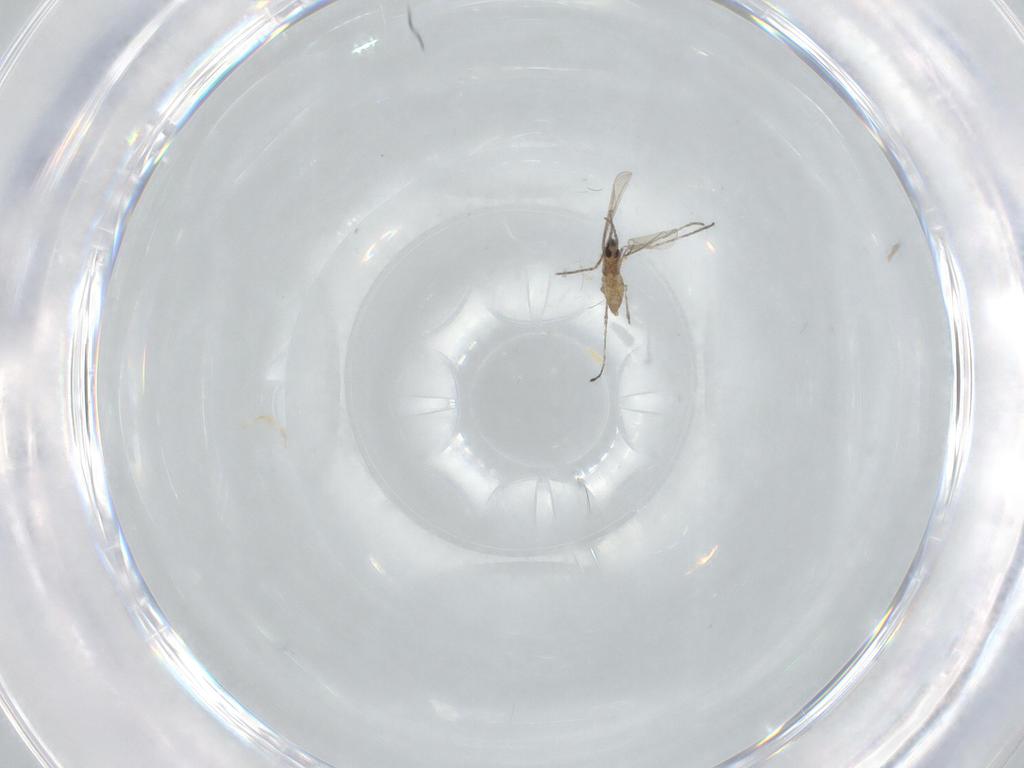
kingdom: Animalia
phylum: Arthropoda
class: Insecta
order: Diptera
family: Cecidomyiidae
